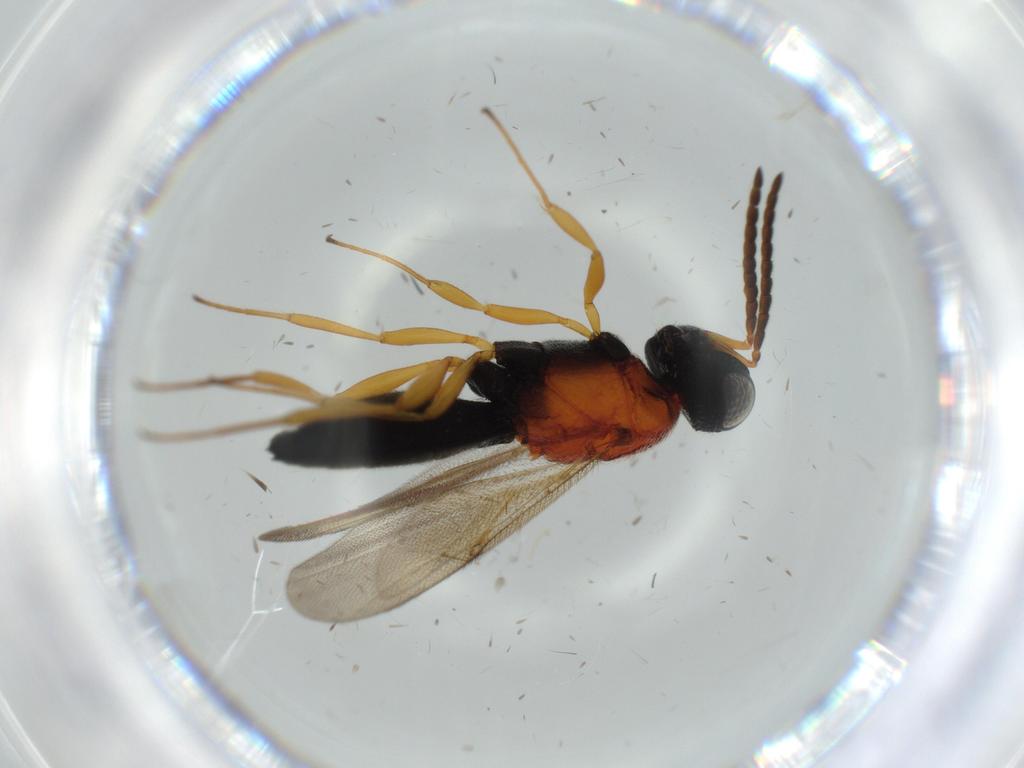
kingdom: Animalia
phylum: Arthropoda
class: Insecta
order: Hymenoptera
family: Scelionidae
